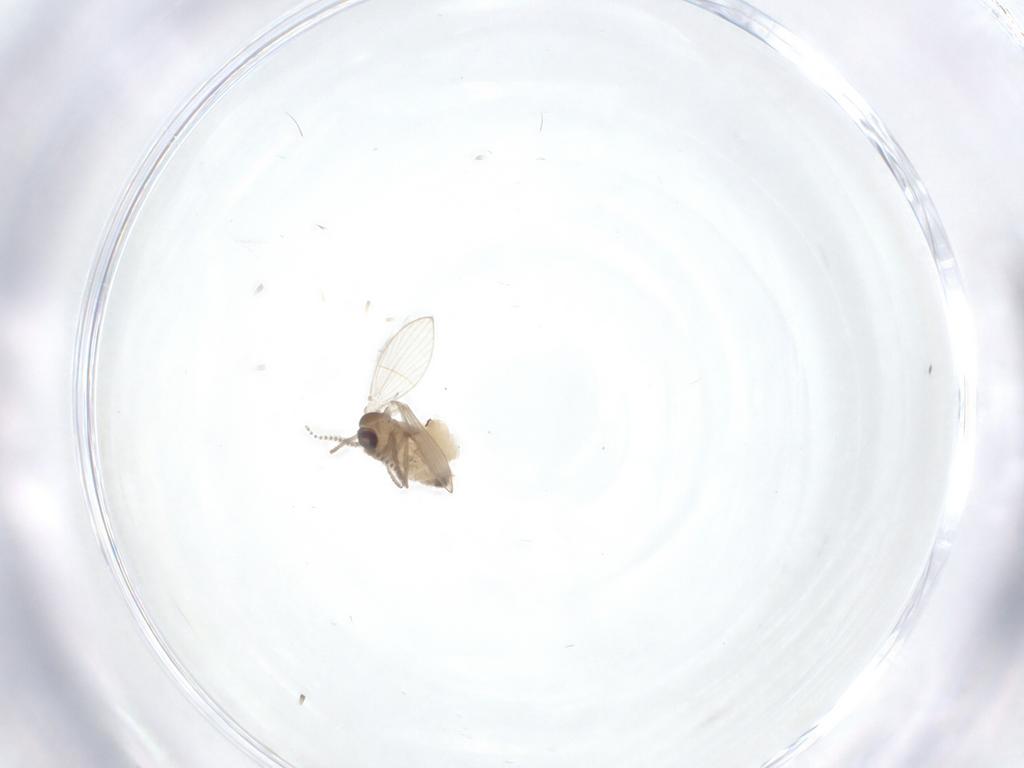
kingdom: Animalia
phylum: Arthropoda
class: Insecta
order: Diptera
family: Psychodidae
